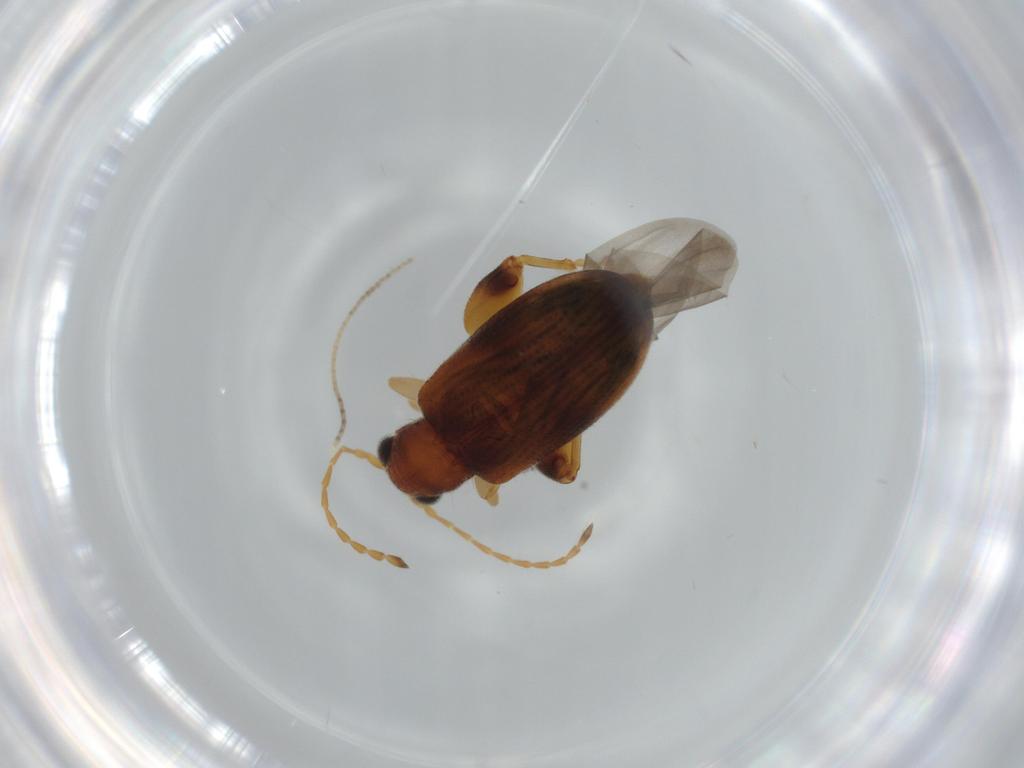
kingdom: Animalia
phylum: Arthropoda
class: Insecta
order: Coleoptera
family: Chrysomelidae
